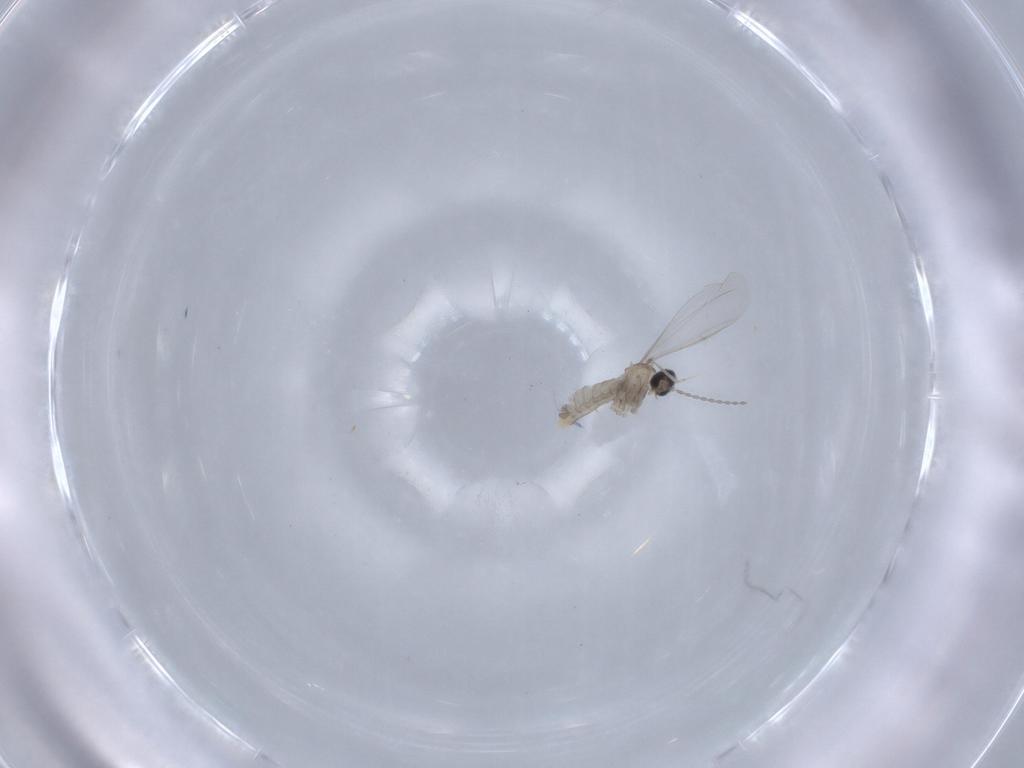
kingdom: Animalia
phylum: Arthropoda
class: Insecta
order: Diptera
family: Cecidomyiidae
